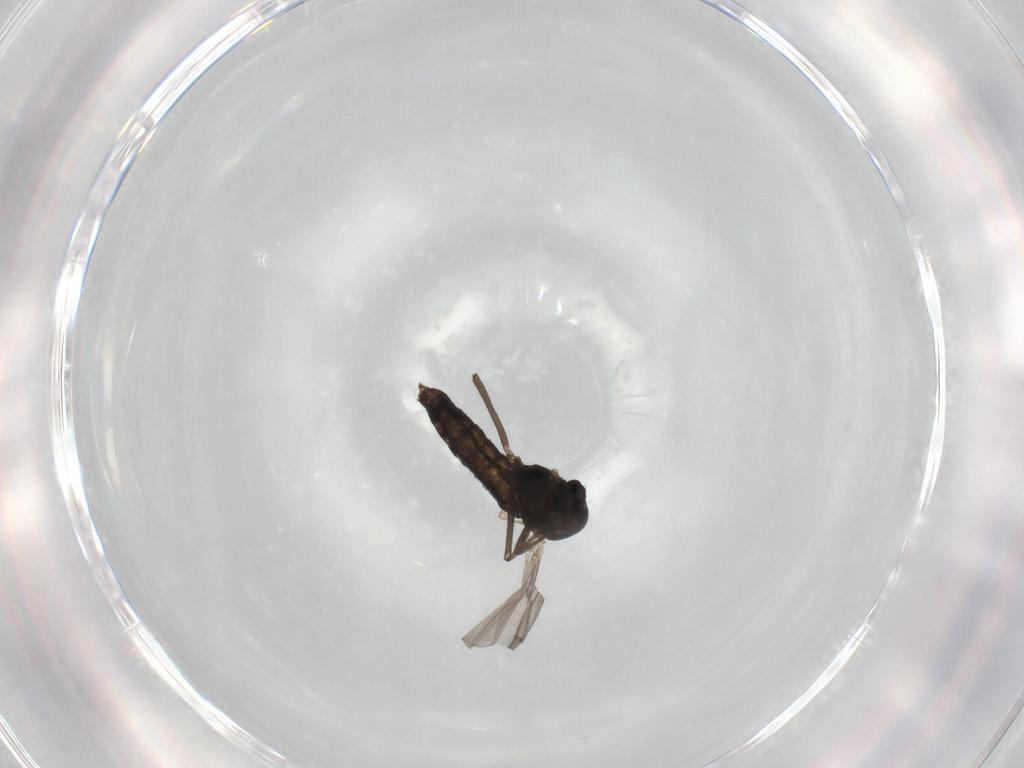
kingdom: Animalia
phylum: Arthropoda
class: Insecta
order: Diptera
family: Chironomidae
